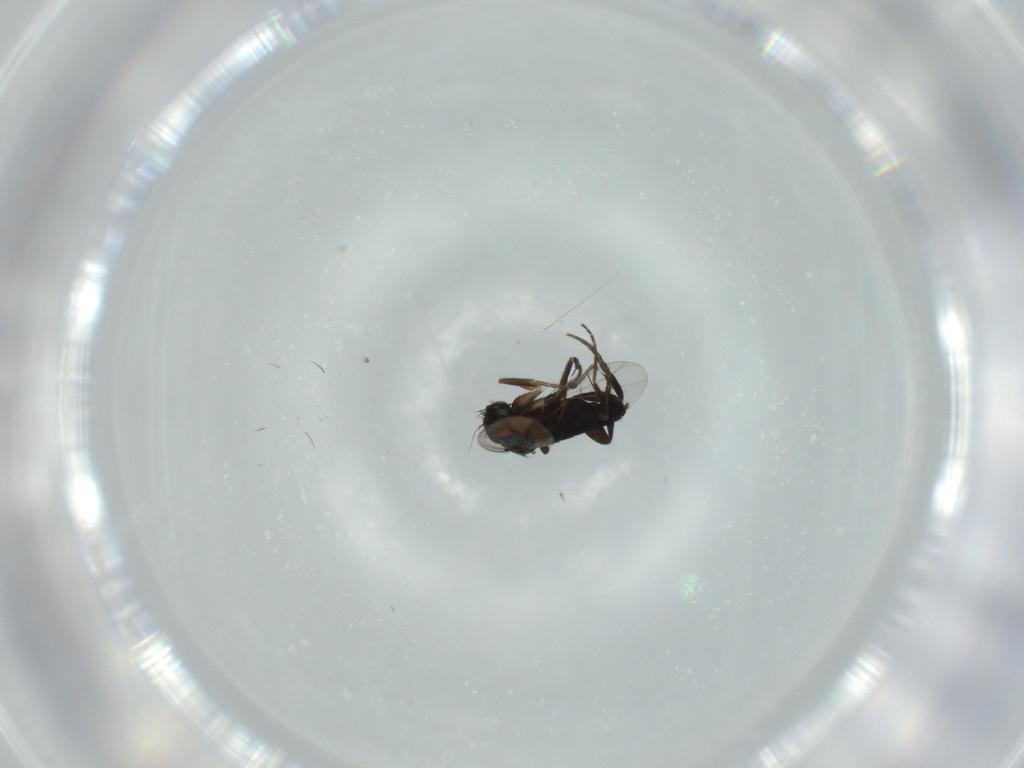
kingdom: Animalia
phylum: Arthropoda
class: Insecta
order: Diptera
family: Phoridae
